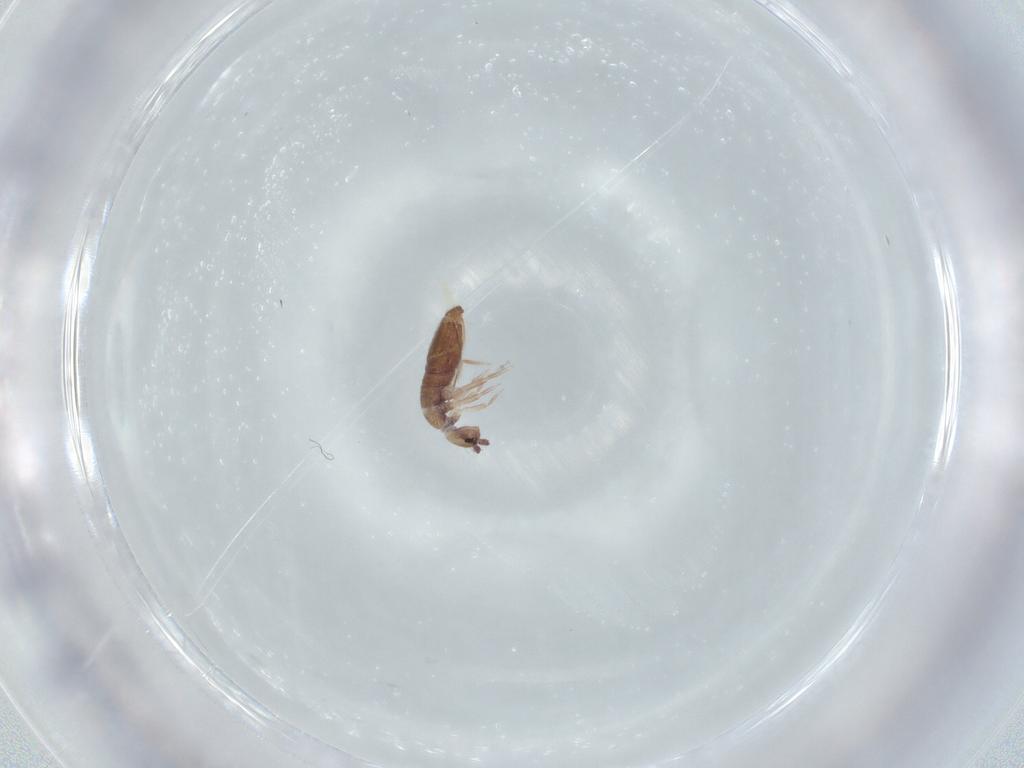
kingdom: Animalia
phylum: Arthropoda
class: Collembola
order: Entomobryomorpha
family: Entomobryidae
